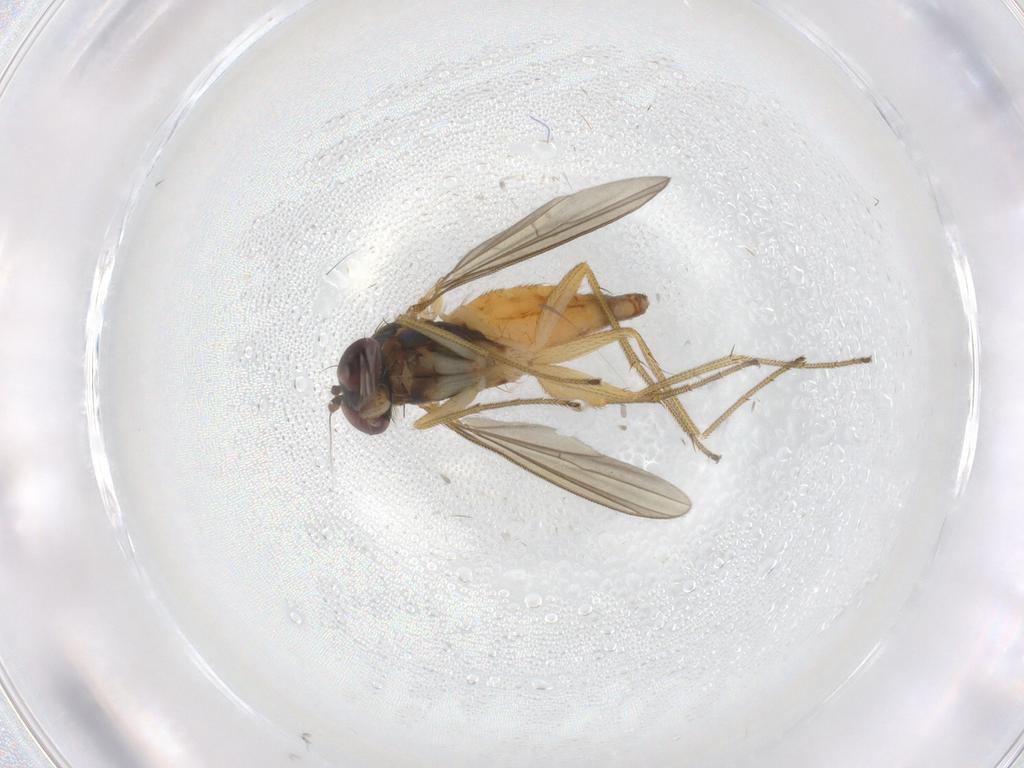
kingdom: Animalia
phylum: Arthropoda
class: Insecta
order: Diptera
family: Dolichopodidae
